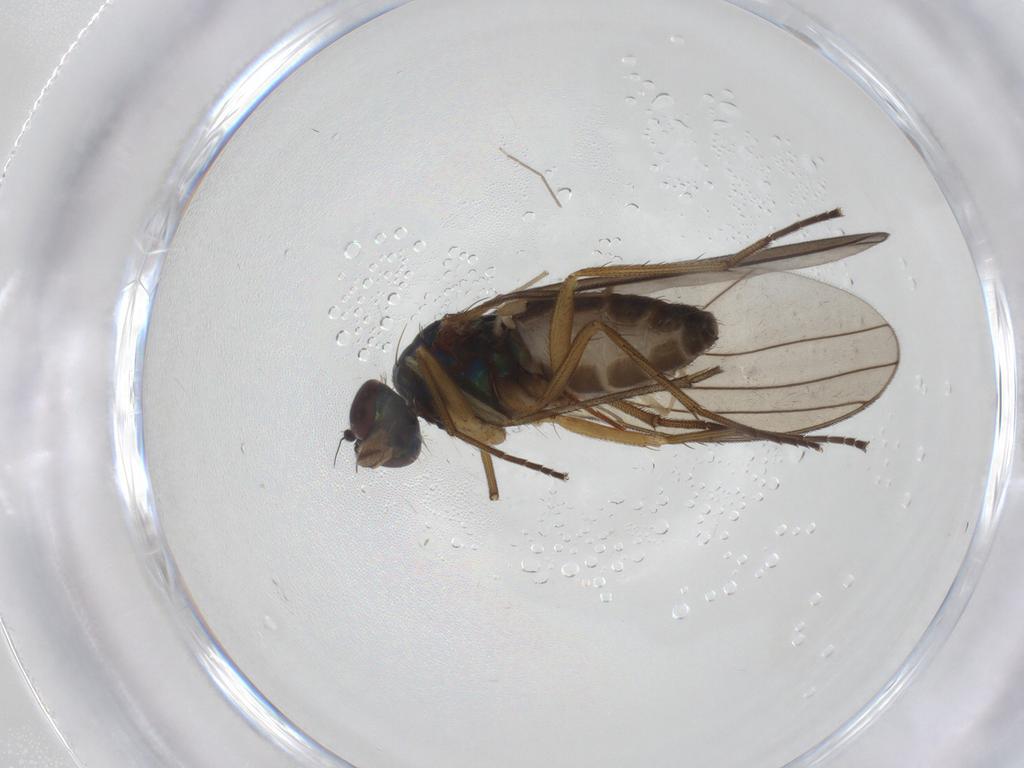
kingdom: Animalia
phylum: Arthropoda
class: Insecta
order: Diptera
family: Dolichopodidae
